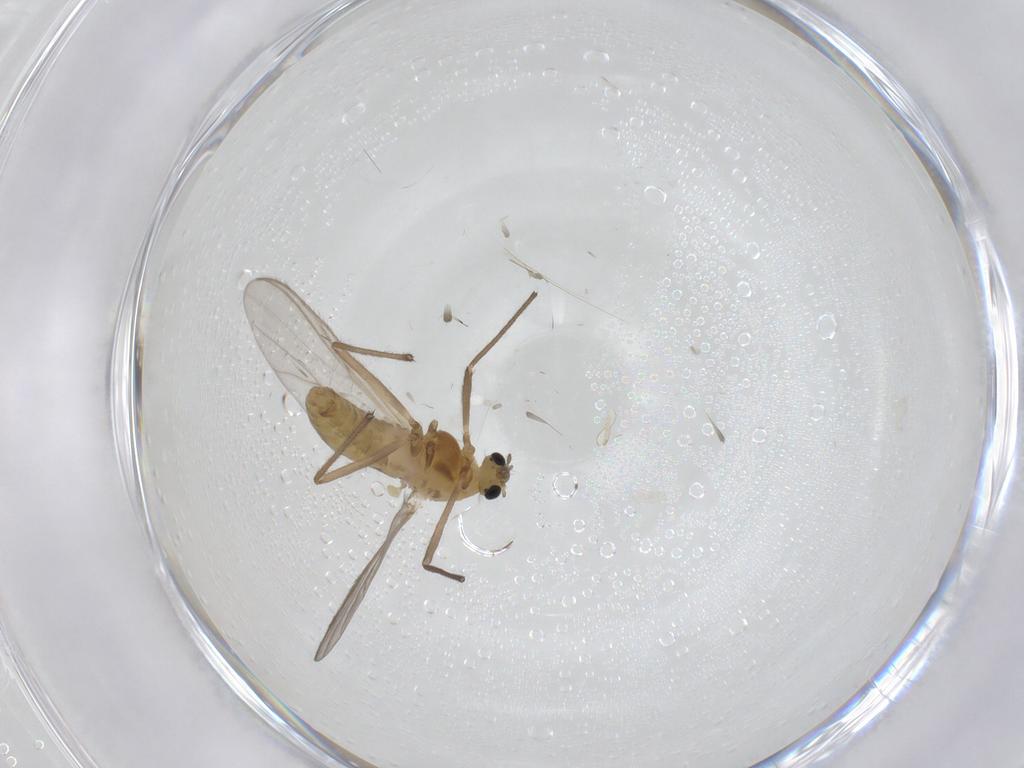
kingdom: Animalia
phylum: Arthropoda
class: Insecta
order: Diptera
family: Chironomidae
